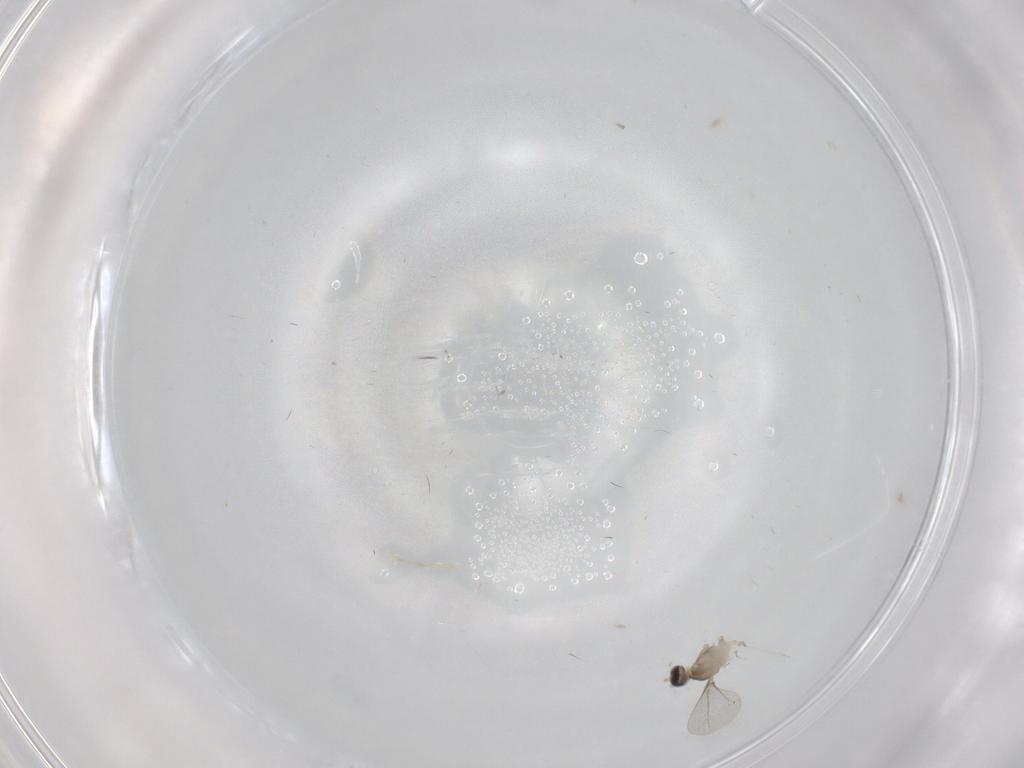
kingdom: Animalia
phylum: Arthropoda
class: Insecta
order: Diptera
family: Cecidomyiidae
